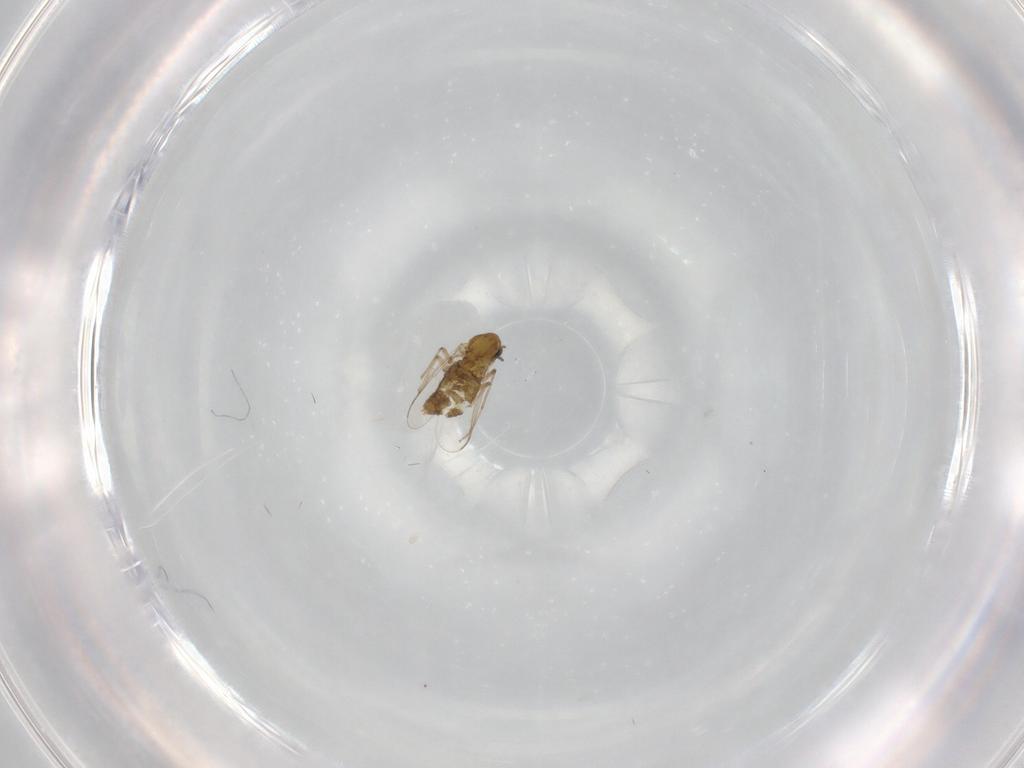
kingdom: Animalia
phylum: Arthropoda
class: Insecta
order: Diptera
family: Chironomidae
